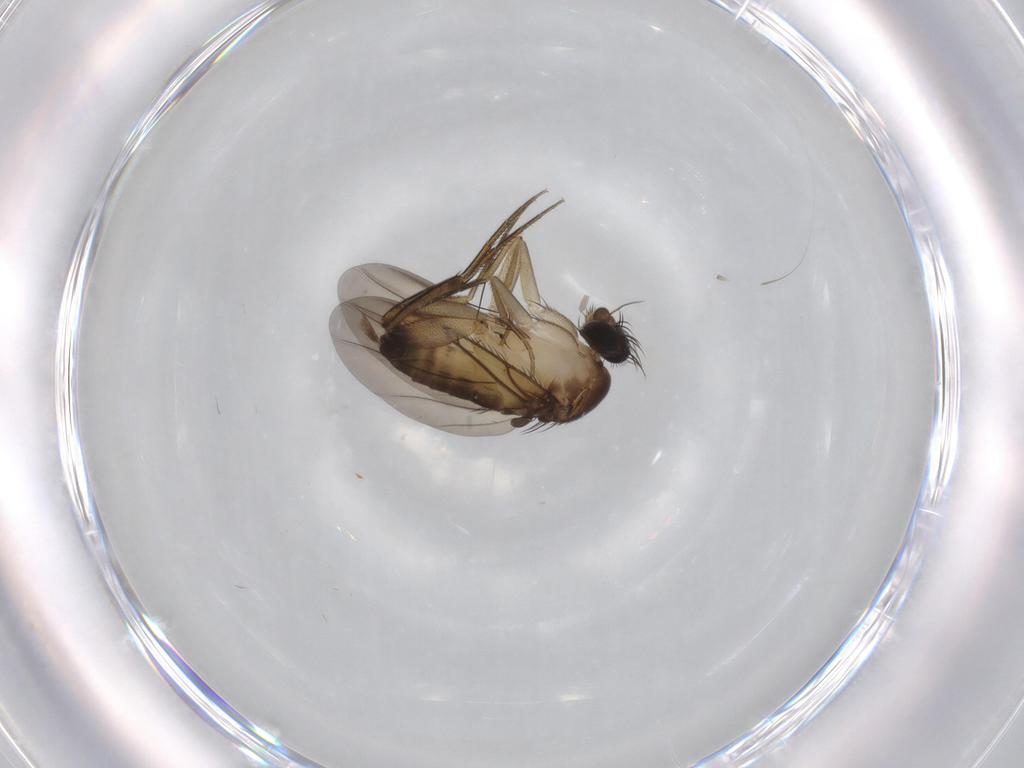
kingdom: Animalia
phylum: Arthropoda
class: Insecta
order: Diptera
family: Phoridae
